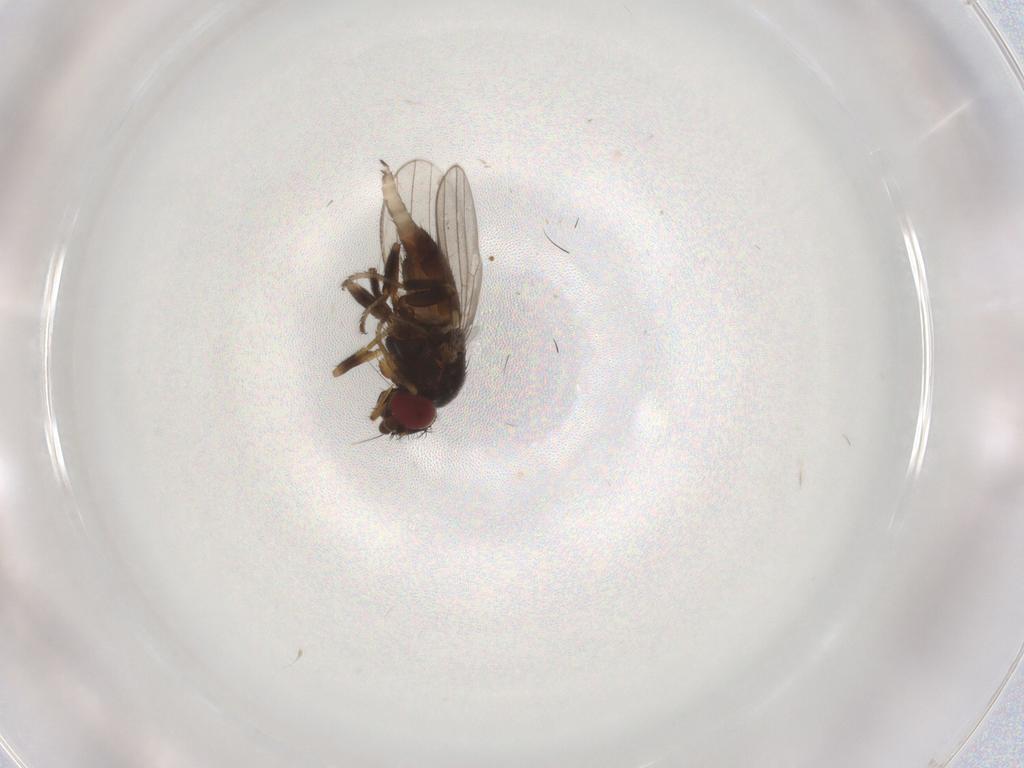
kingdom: Animalia
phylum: Arthropoda
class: Insecta
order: Diptera
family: Milichiidae
